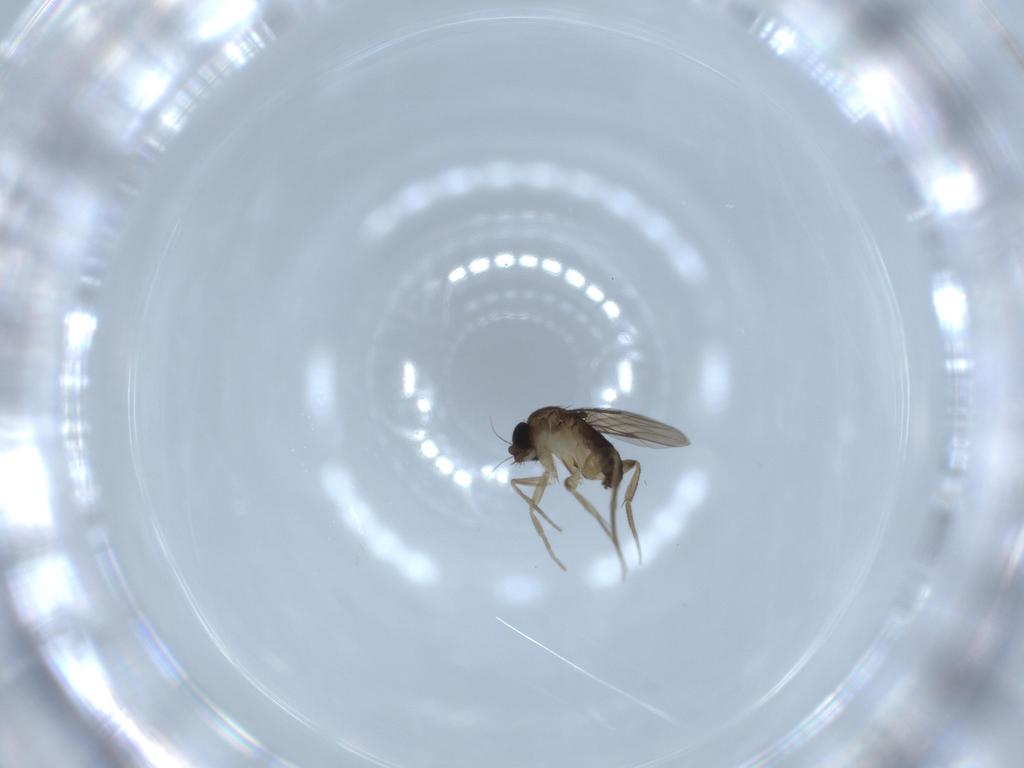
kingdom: Animalia
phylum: Arthropoda
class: Insecta
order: Diptera
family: Phoridae
